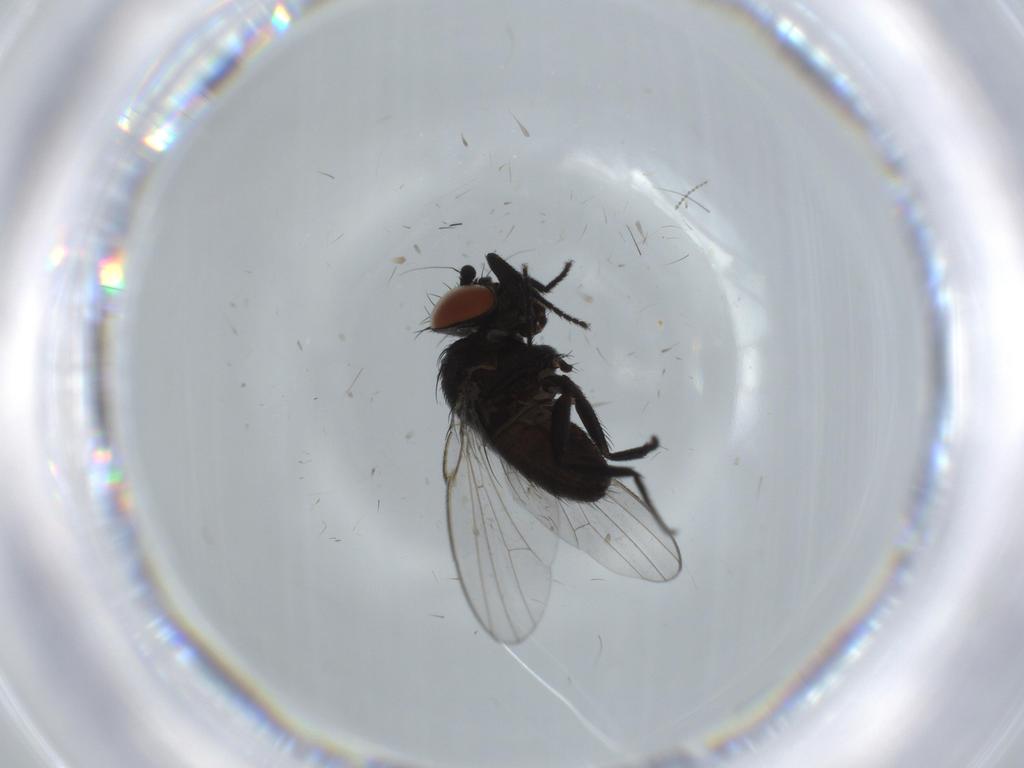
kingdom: Animalia
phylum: Arthropoda
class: Insecta
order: Diptera
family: Milichiidae
